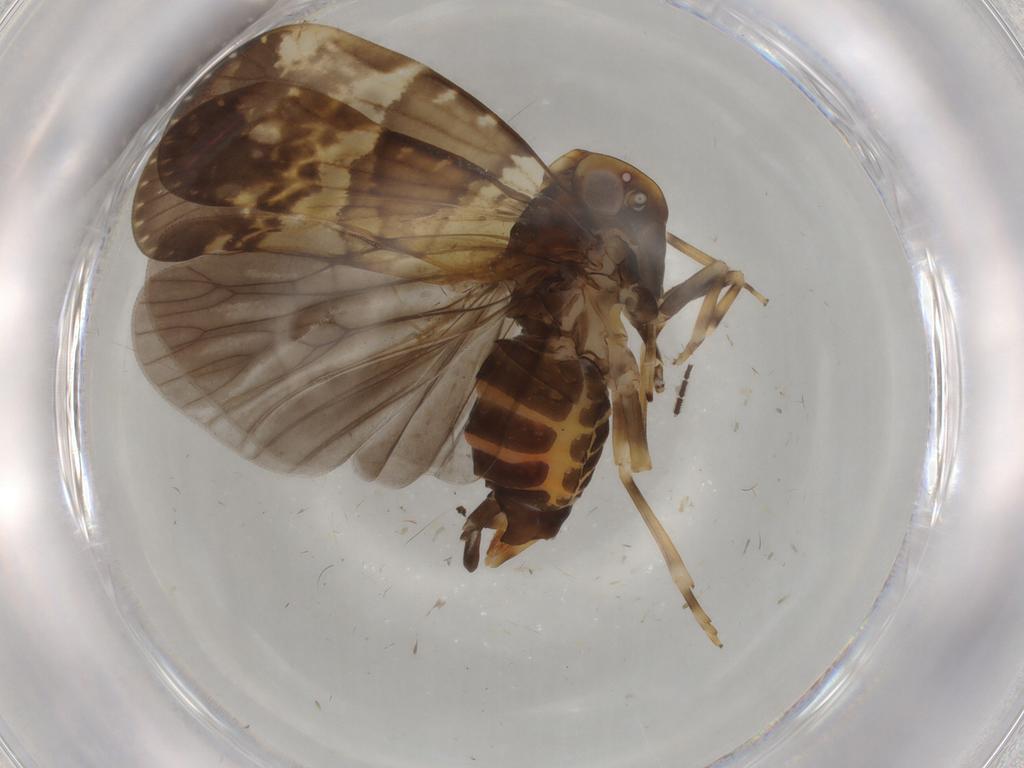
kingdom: Animalia
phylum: Arthropoda
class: Insecta
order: Hemiptera
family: Cixiidae
